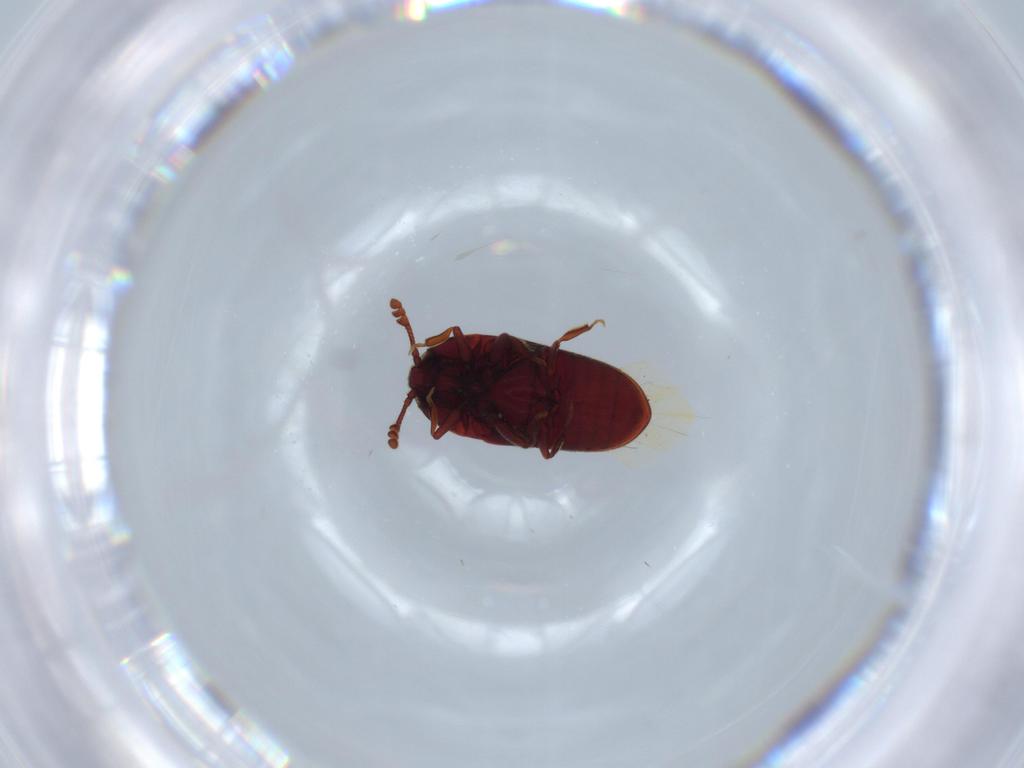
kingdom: Animalia
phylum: Arthropoda
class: Insecta
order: Coleoptera
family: Throscidae
